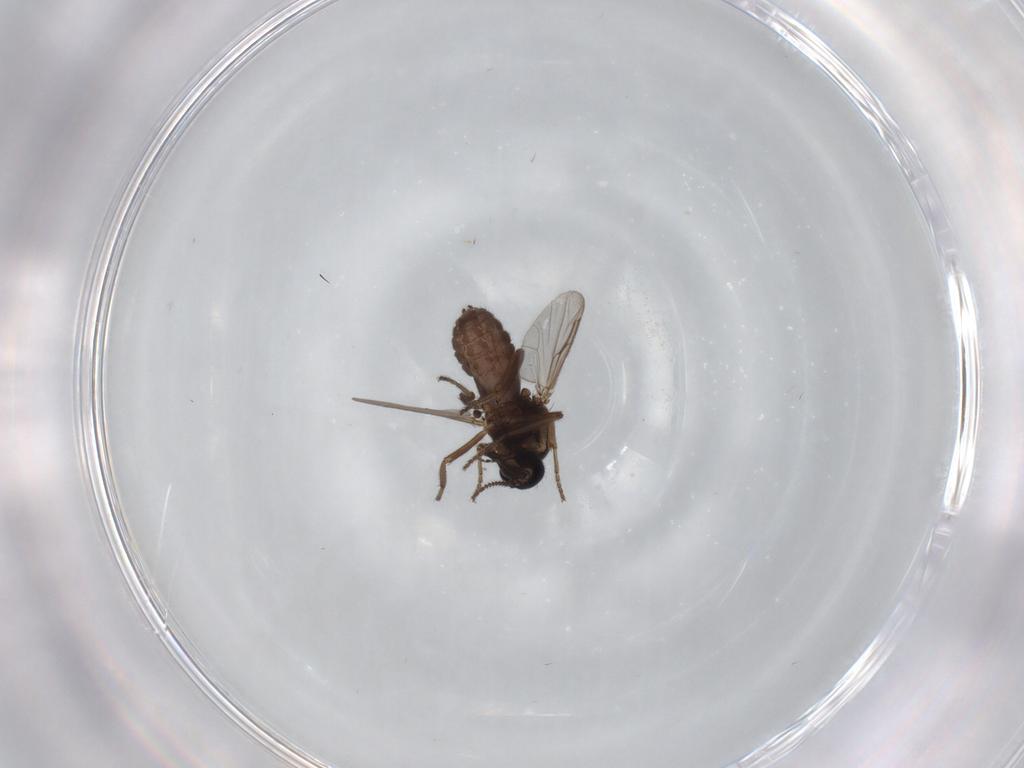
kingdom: Animalia
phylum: Arthropoda
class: Insecta
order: Diptera
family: Ceratopogonidae
